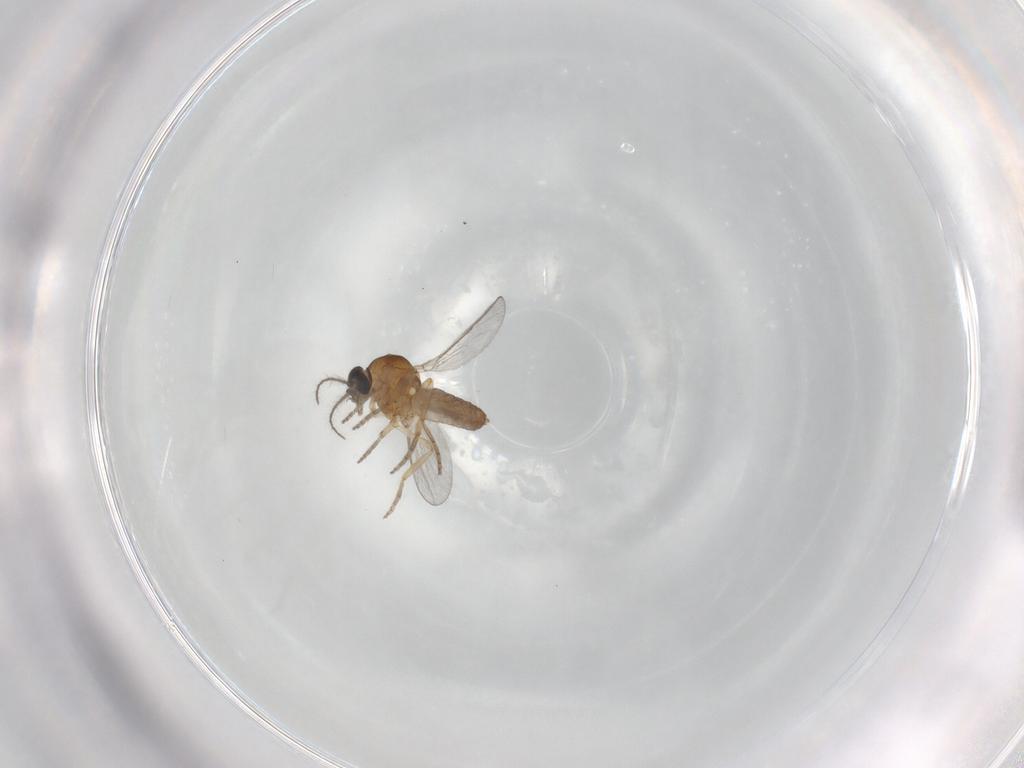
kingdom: Animalia
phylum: Arthropoda
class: Insecta
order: Diptera
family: Ceratopogonidae
